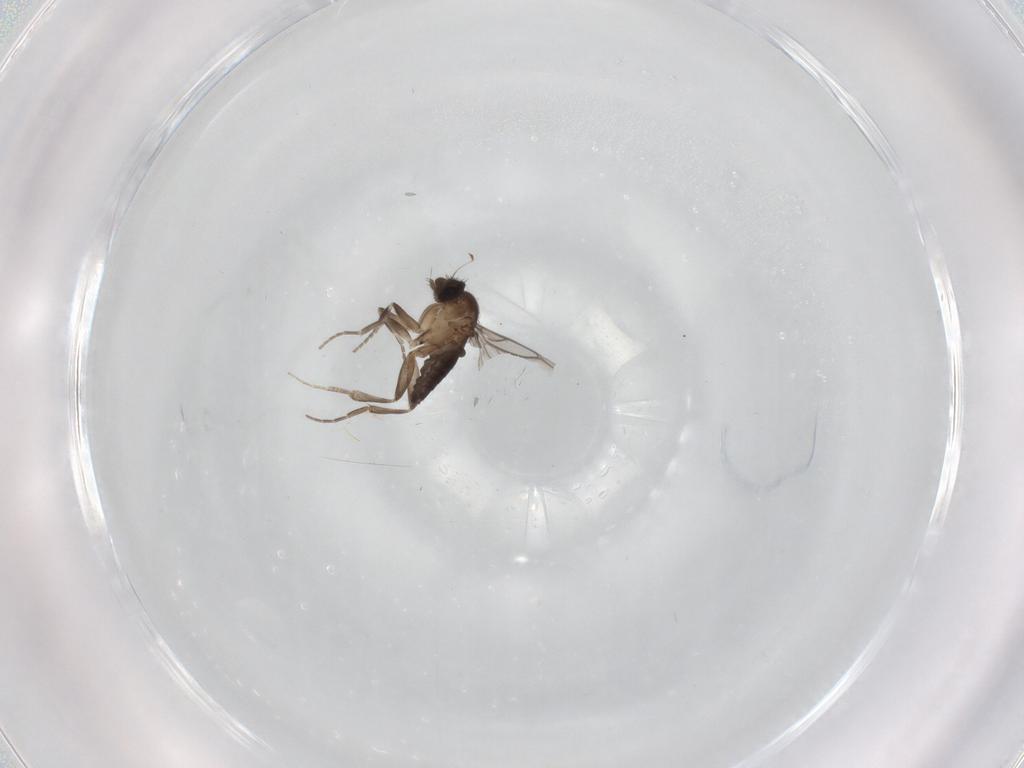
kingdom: Animalia
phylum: Arthropoda
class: Insecta
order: Diptera
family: Sciaridae
